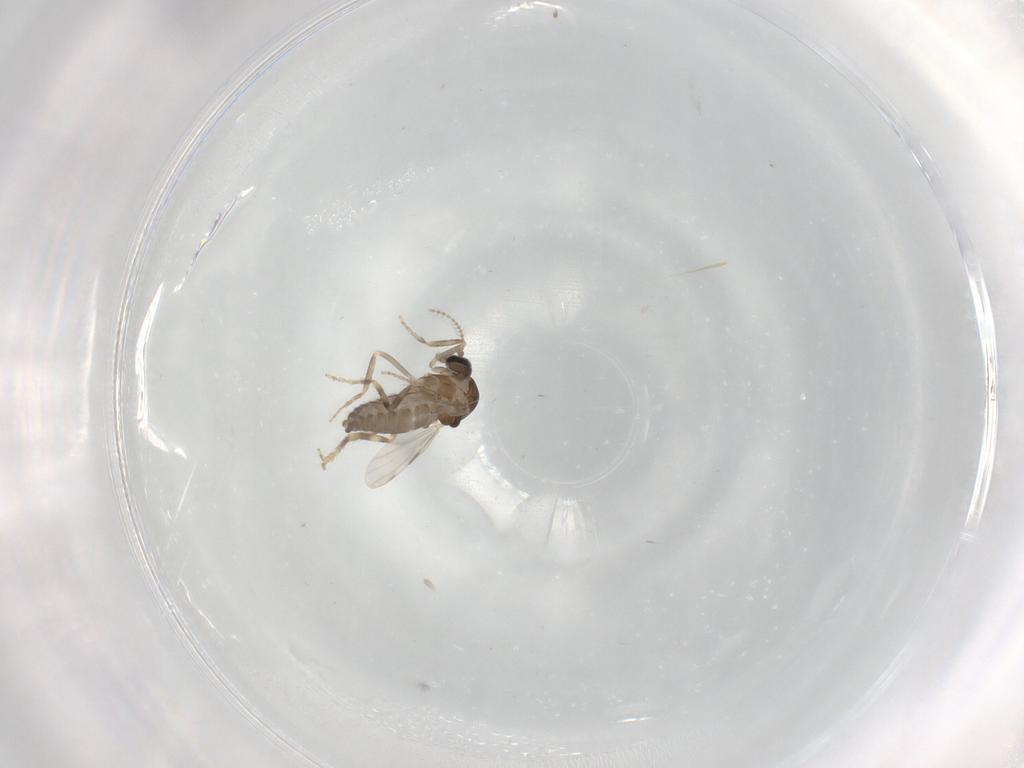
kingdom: Animalia
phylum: Arthropoda
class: Insecta
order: Diptera
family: Ceratopogonidae
